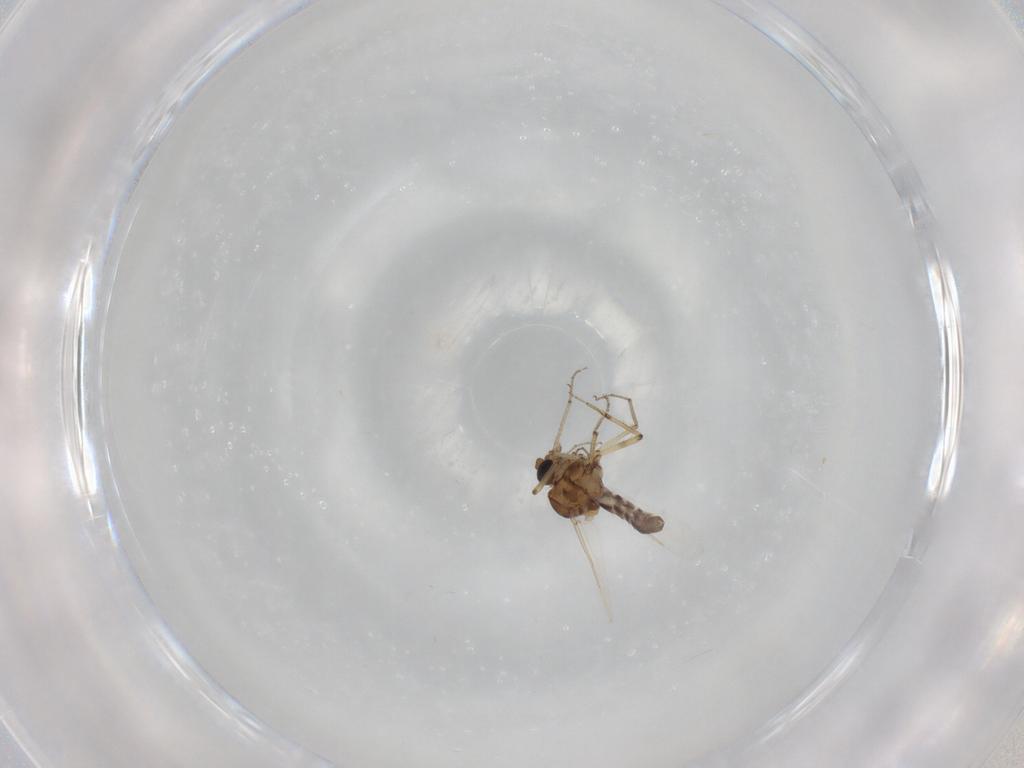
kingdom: Animalia
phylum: Arthropoda
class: Insecta
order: Diptera
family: Ceratopogonidae
